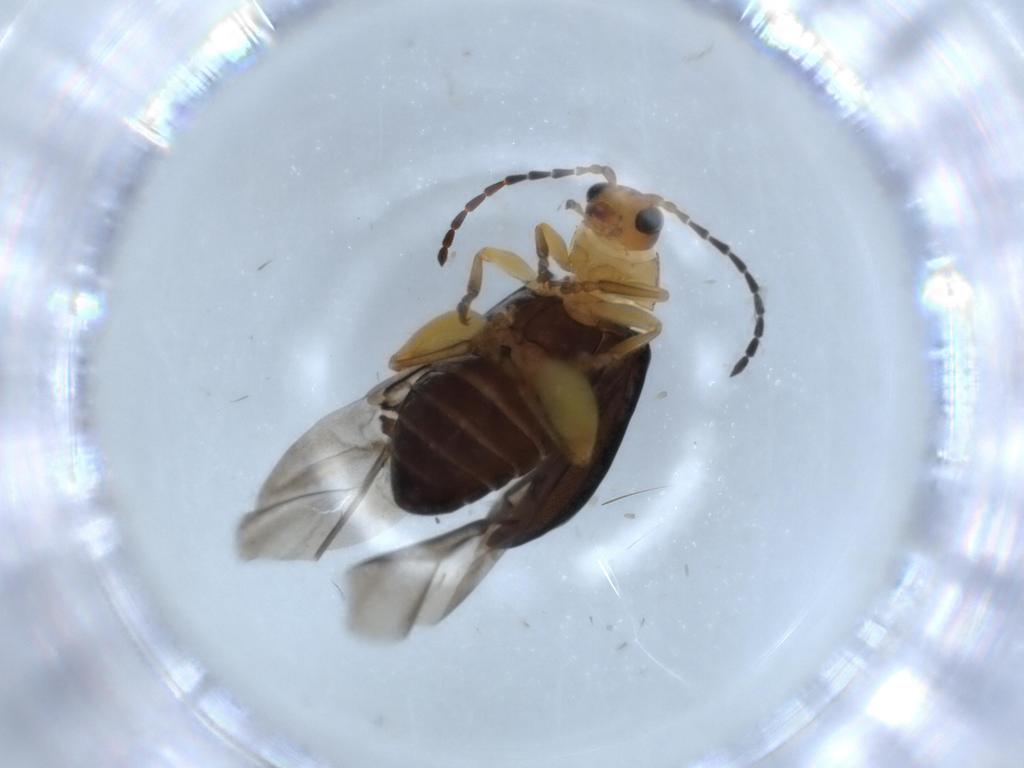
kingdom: Animalia
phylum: Arthropoda
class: Insecta
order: Coleoptera
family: Chrysomelidae
